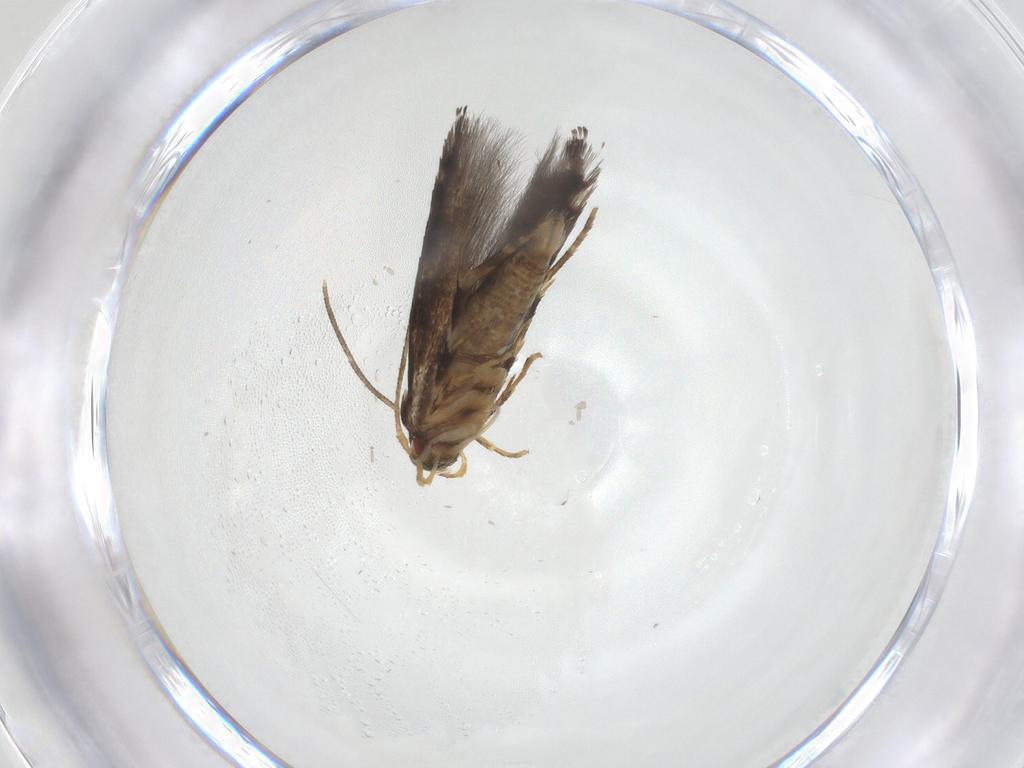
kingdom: Animalia
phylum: Arthropoda
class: Insecta
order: Lepidoptera
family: Momphidae
